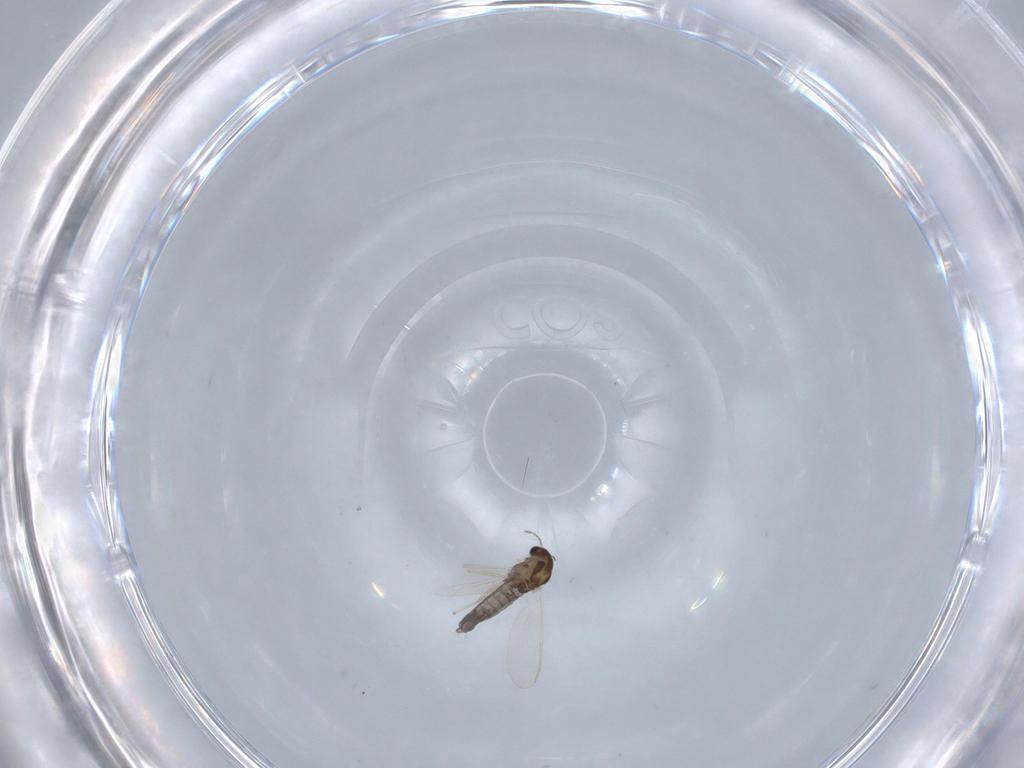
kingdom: Animalia
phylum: Arthropoda
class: Insecta
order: Diptera
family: Chironomidae
